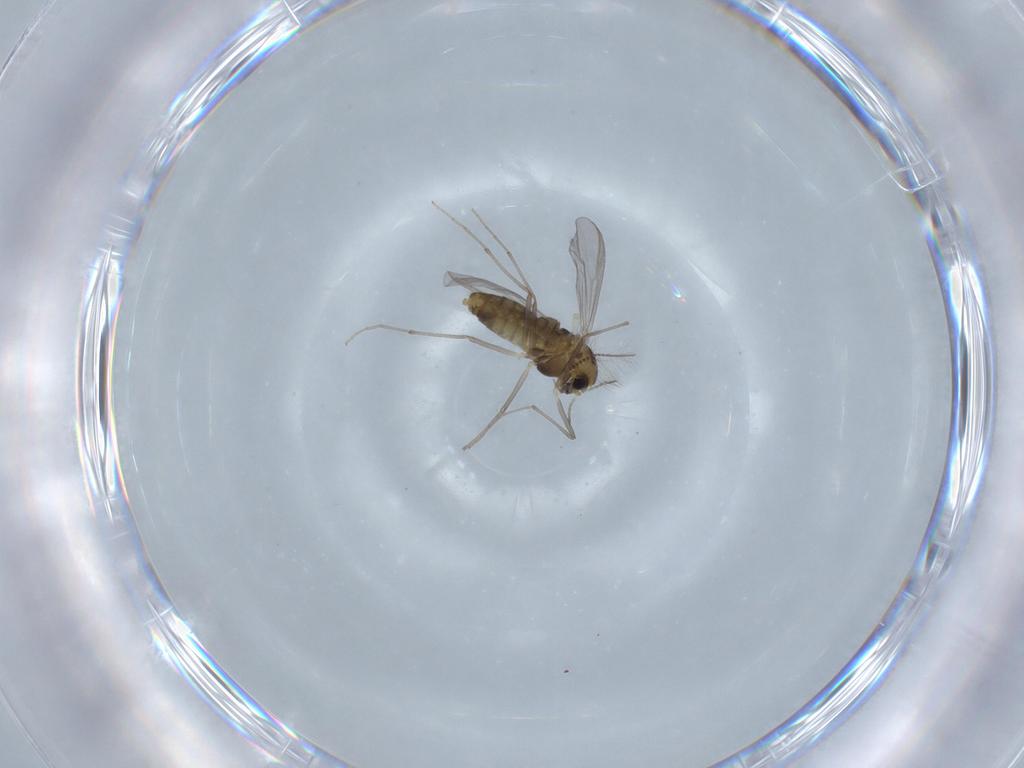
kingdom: Animalia
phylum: Arthropoda
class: Insecta
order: Diptera
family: Chironomidae
